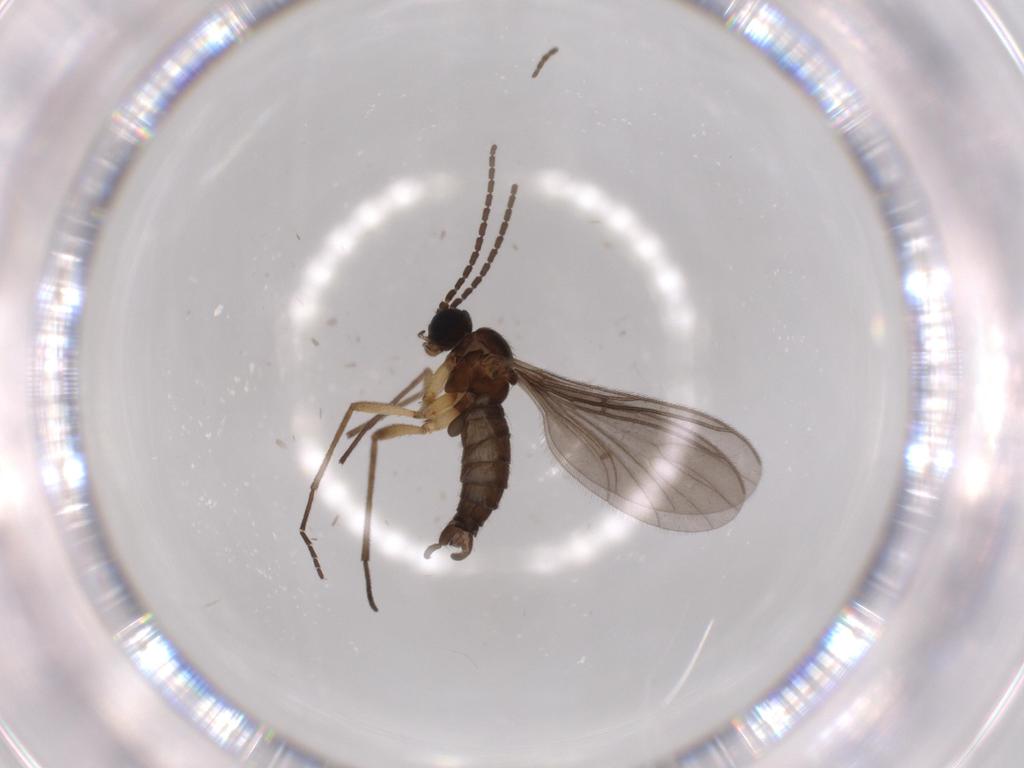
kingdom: Animalia
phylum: Arthropoda
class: Insecta
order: Diptera
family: Sciaridae
